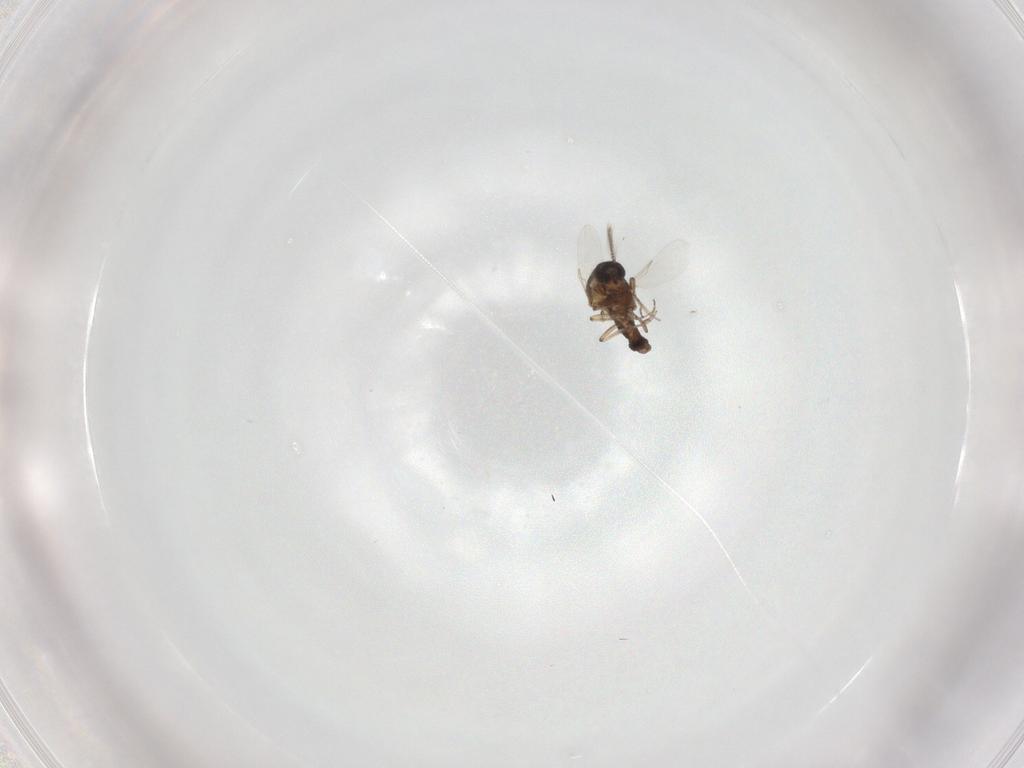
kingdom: Animalia
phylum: Arthropoda
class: Insecta
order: Diptera
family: Ceratopogonidae
